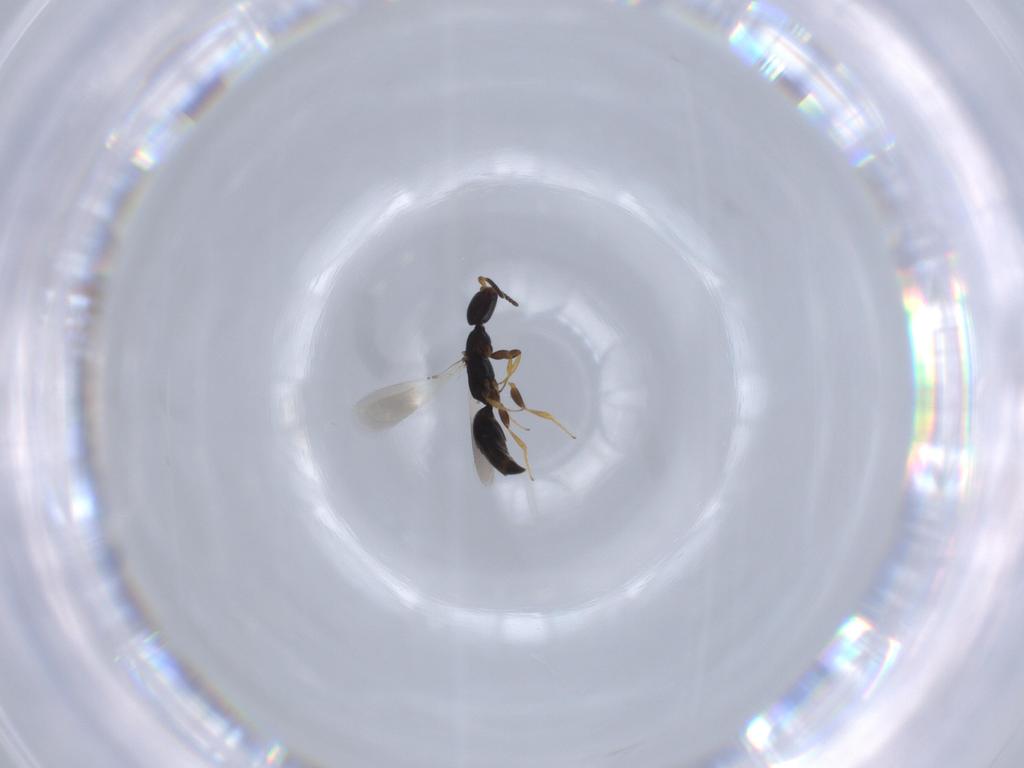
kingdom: Animalia
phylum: Arthropoda
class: Insecta
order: Hymenoptera
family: Bethylidae
